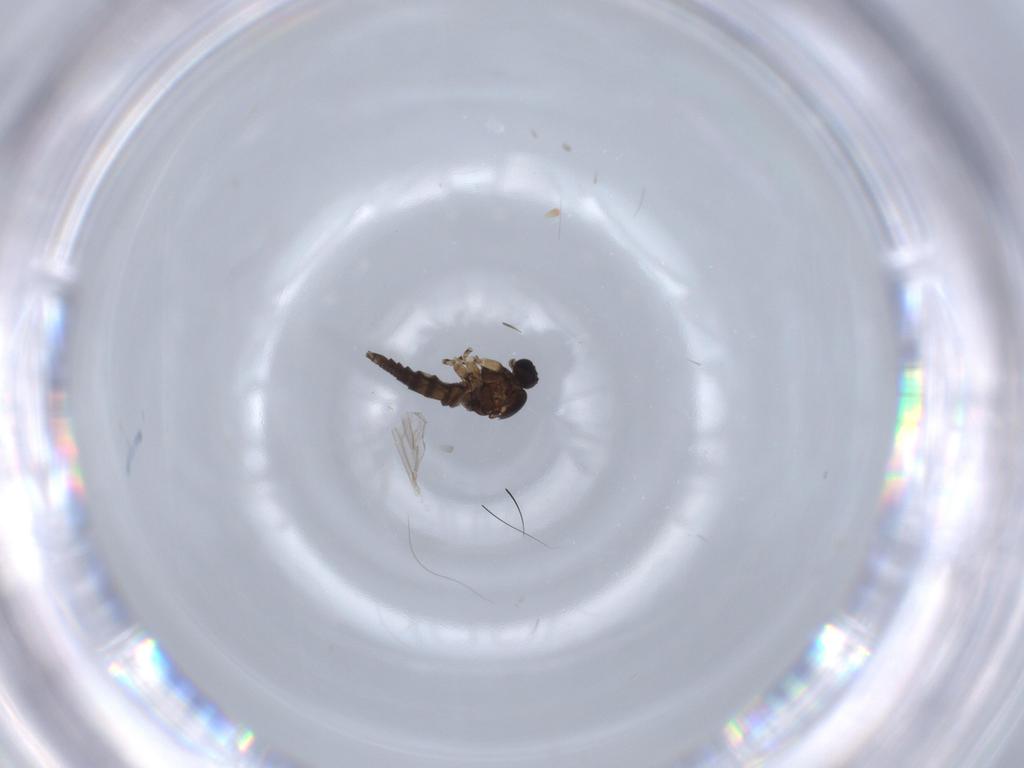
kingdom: Animalia
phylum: Arthropoda
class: Insecta
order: Diptera
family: Sciaridae
